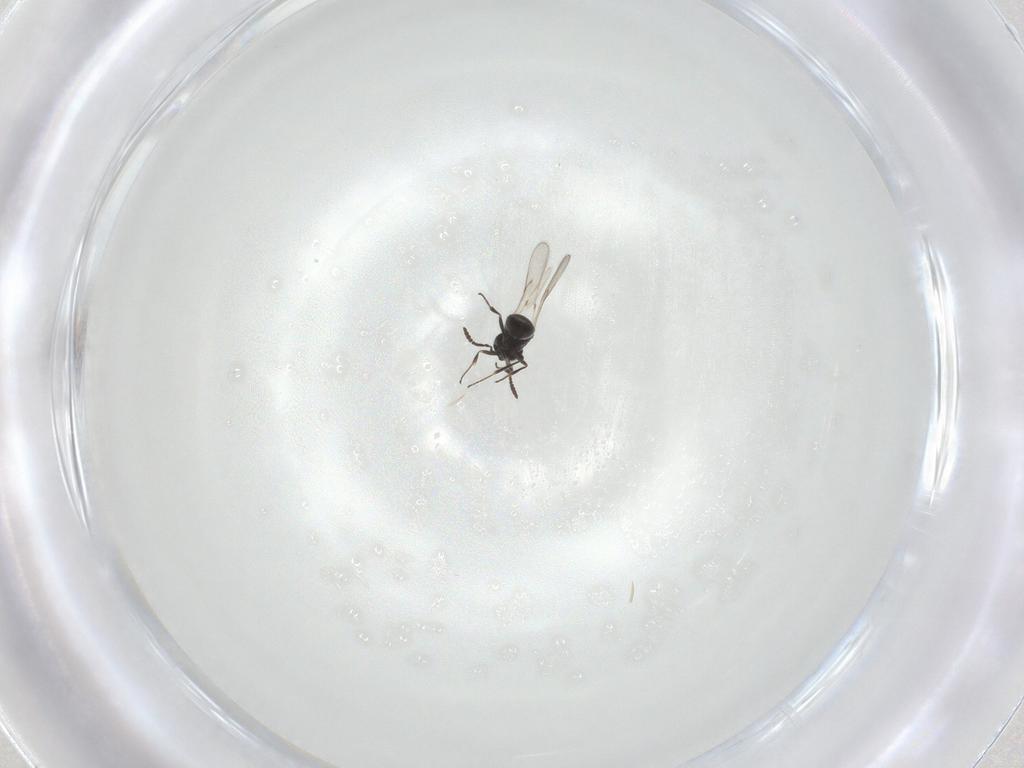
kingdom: Animalia
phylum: Arthropoda
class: Insecta
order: Hymenoptera
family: Scelionidae
